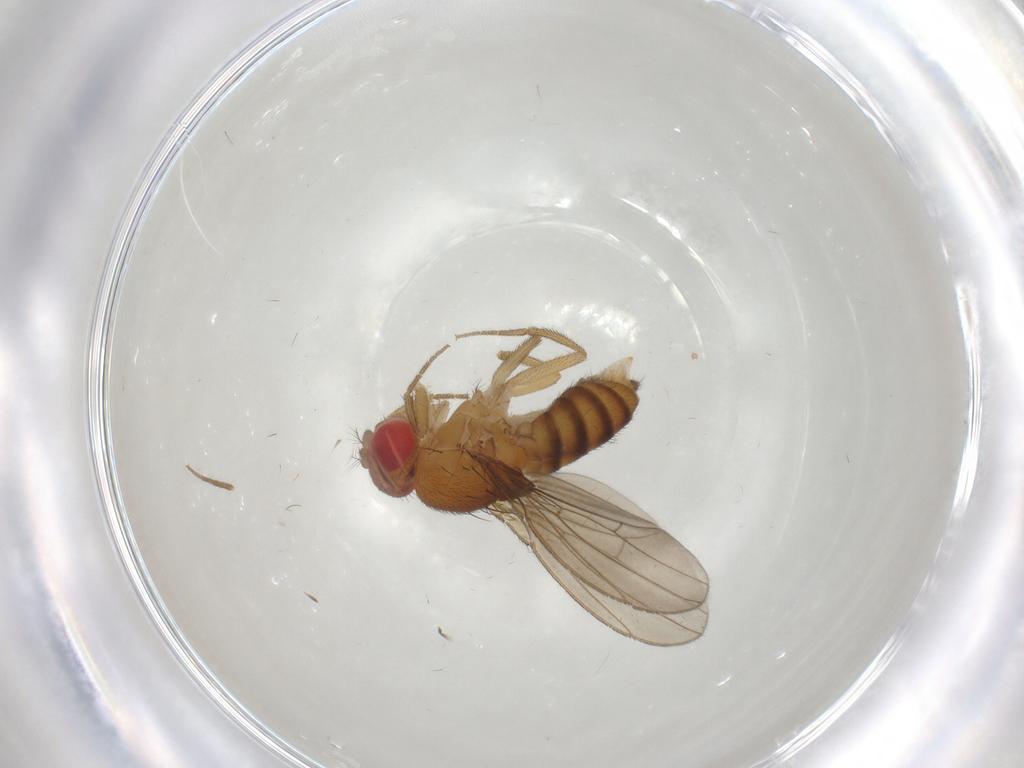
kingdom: Animalia
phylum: Arthropoda
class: Insecta
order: Diptera
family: Drosophilidae
